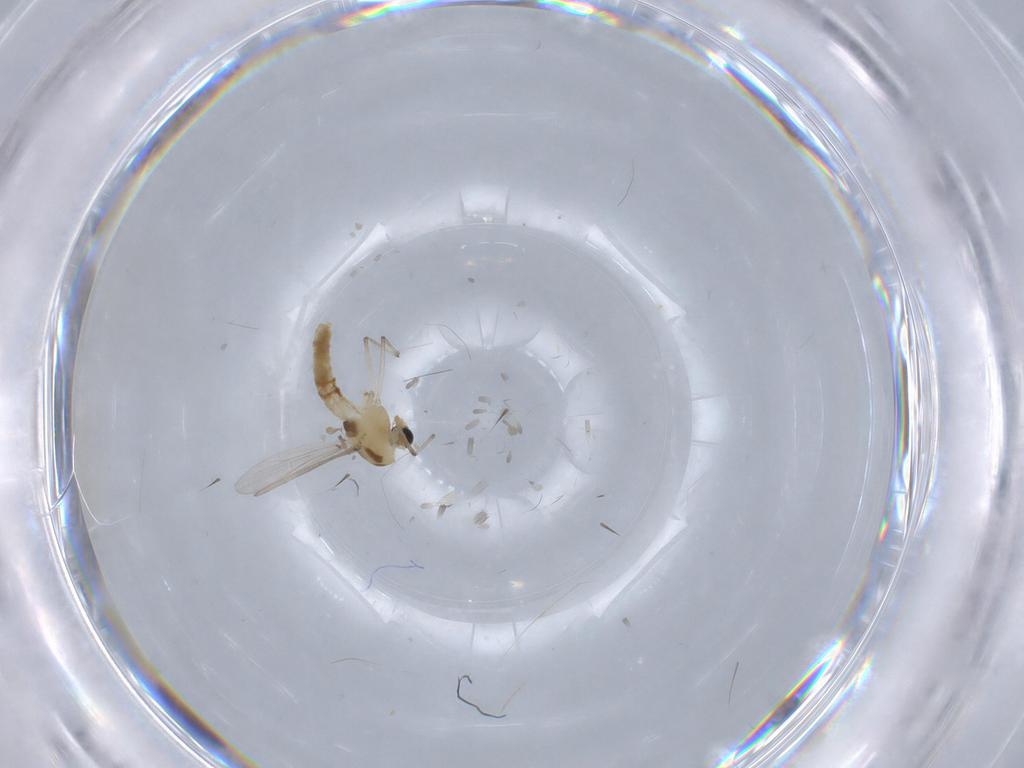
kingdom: Animalia
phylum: Arthropoda
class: Insecta
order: Diptera
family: Chironomidae
